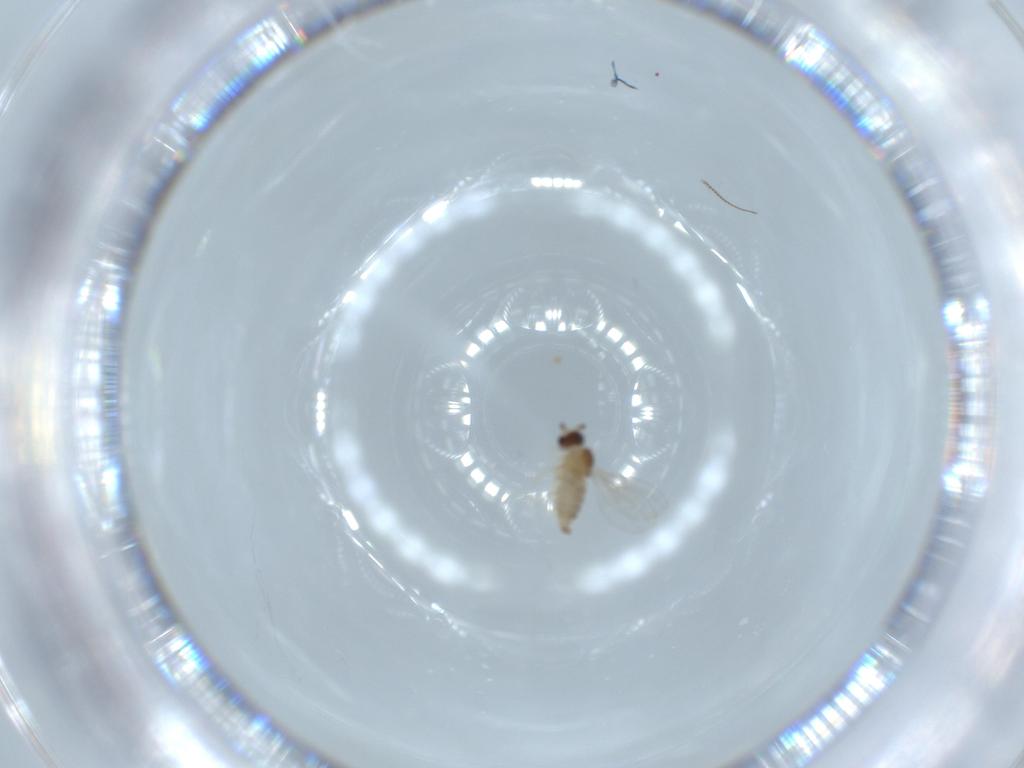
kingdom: Animalia
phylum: Arthropoda
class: Insecta
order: Diptera
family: Cecidomyiidae
